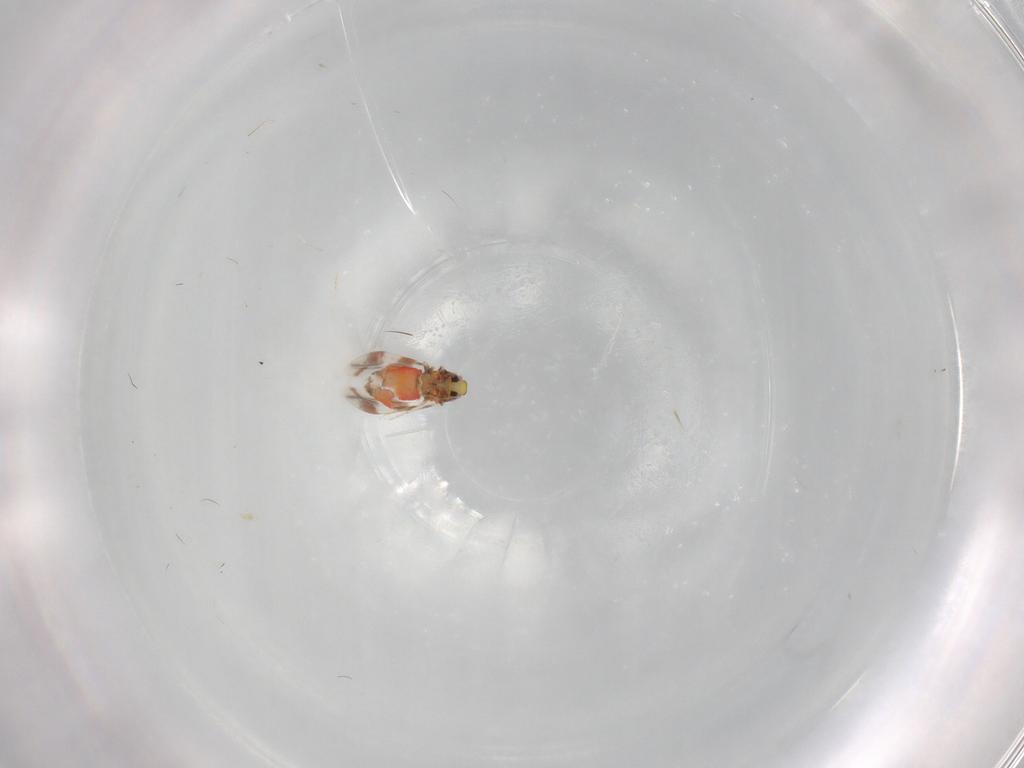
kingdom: Animalia
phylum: Arthropoda
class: Insecta
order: Hemiptera
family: Aleyrodidae
